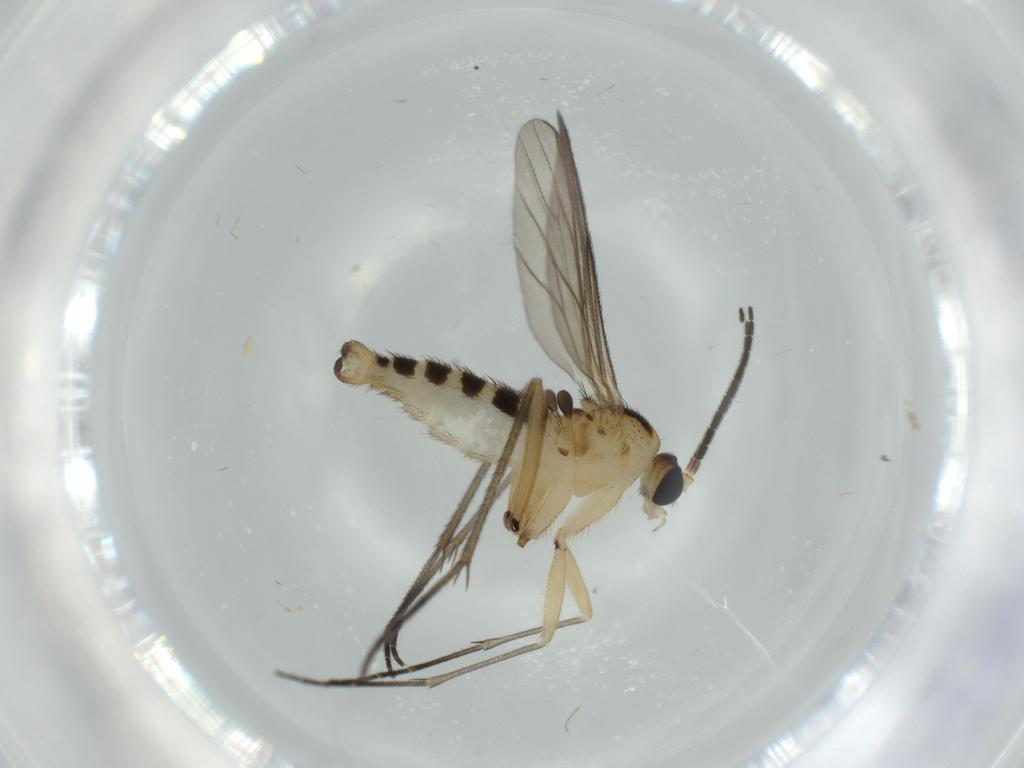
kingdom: Animalia
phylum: Arthropoda
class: Insecta
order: Diptera
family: Sciaridae
